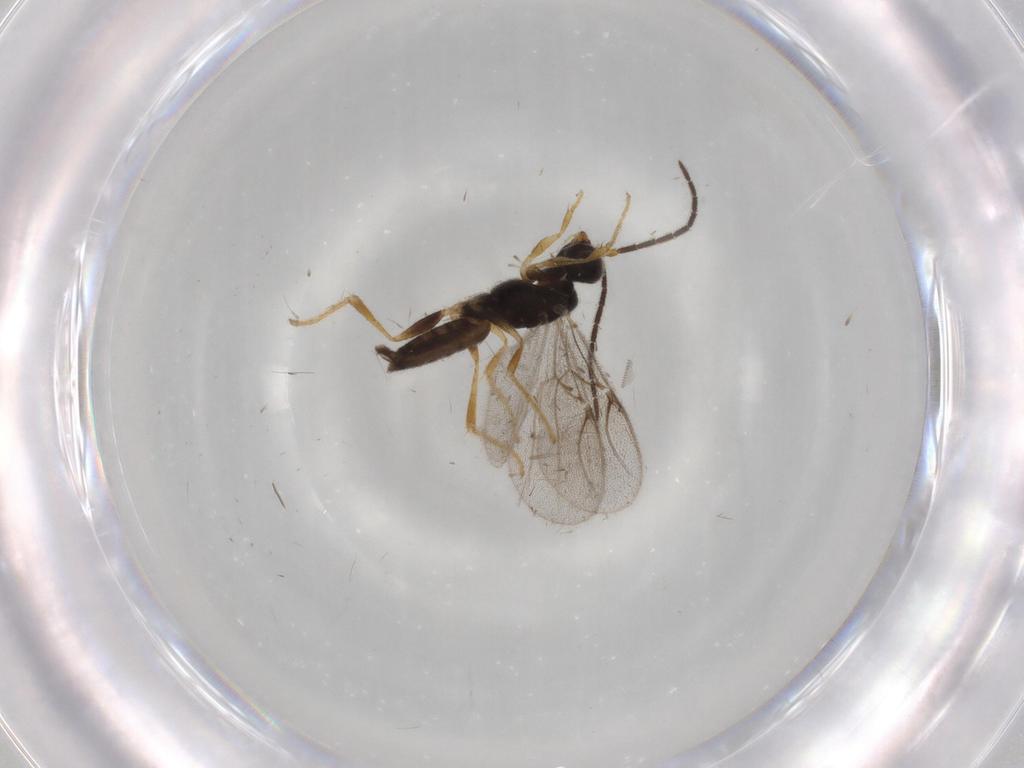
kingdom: Animalia
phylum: Arthropoda
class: Insecta
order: Hymenoptera
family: Dryinidae
